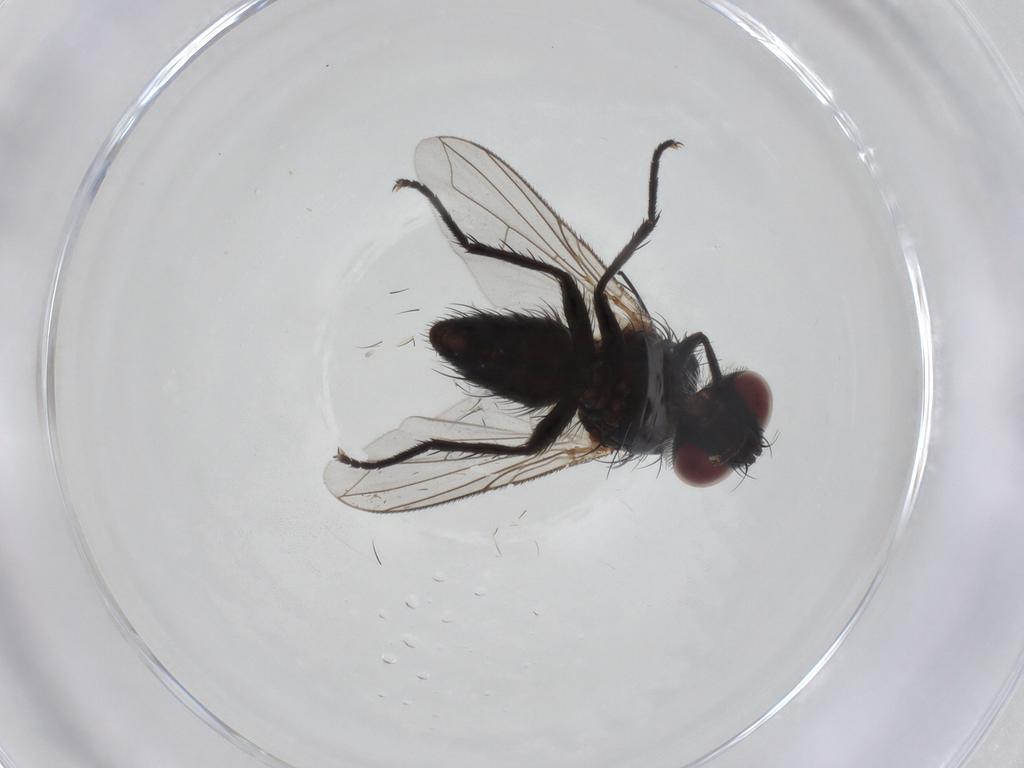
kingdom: Animalia
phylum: Arthropoda
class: Insecta
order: Diptera
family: Tachinidae
